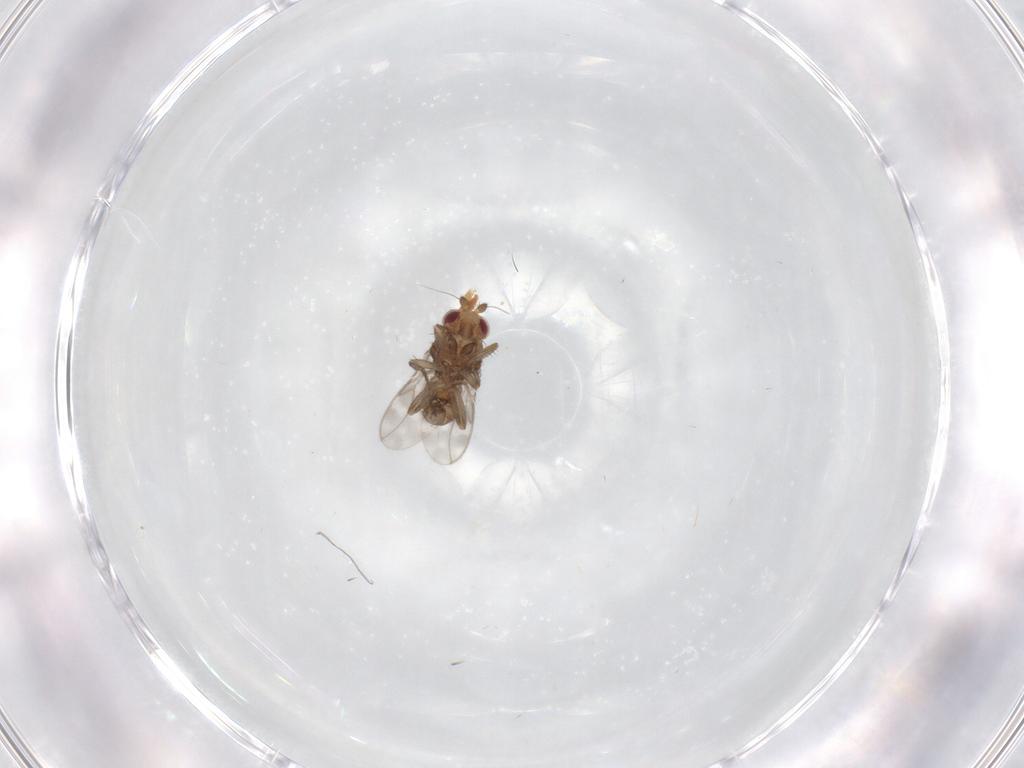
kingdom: Animalia
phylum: Arthropoda
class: Insecta
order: Diptera
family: Sphaeroceridae
